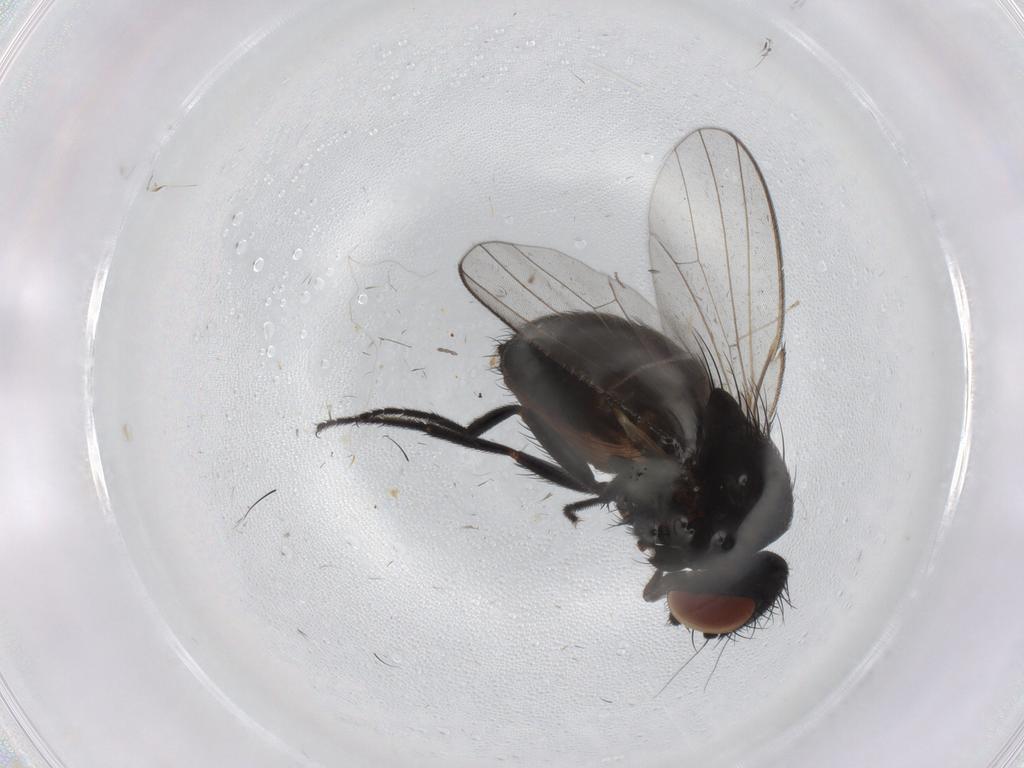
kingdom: Animalia
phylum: Arthropoda
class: Insecta
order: Diptera
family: Milichiidae
